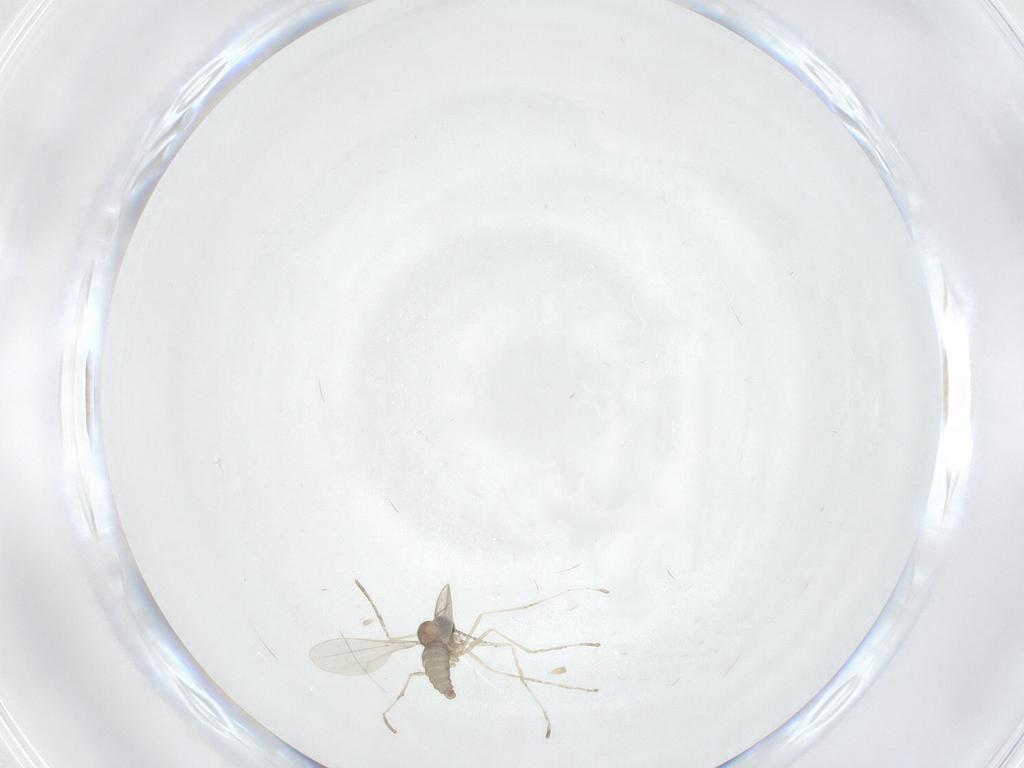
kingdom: Animalia
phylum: Arthropoda
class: Insecta
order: Diptera
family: Cecidomyiidae
